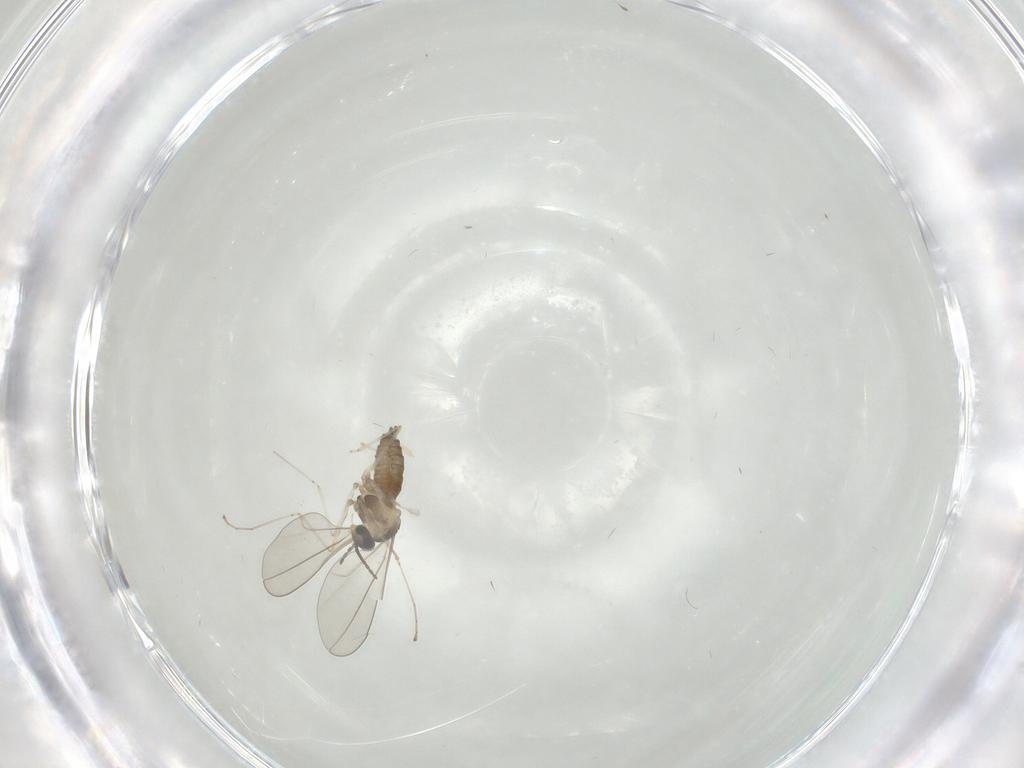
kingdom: Animalia
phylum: Arthropoda
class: Insecta
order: Diptera
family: Cecidomyiidae
